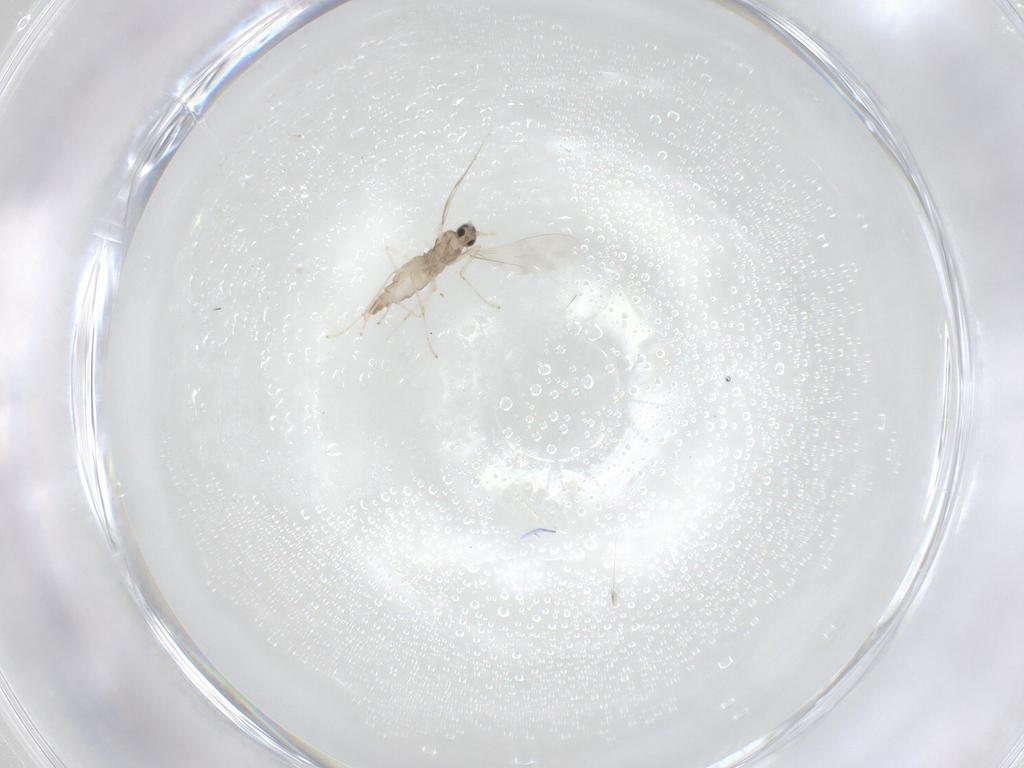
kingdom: Animalia
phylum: Arthropoda
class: Insecta
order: Diptera
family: Cecidomyiidae
